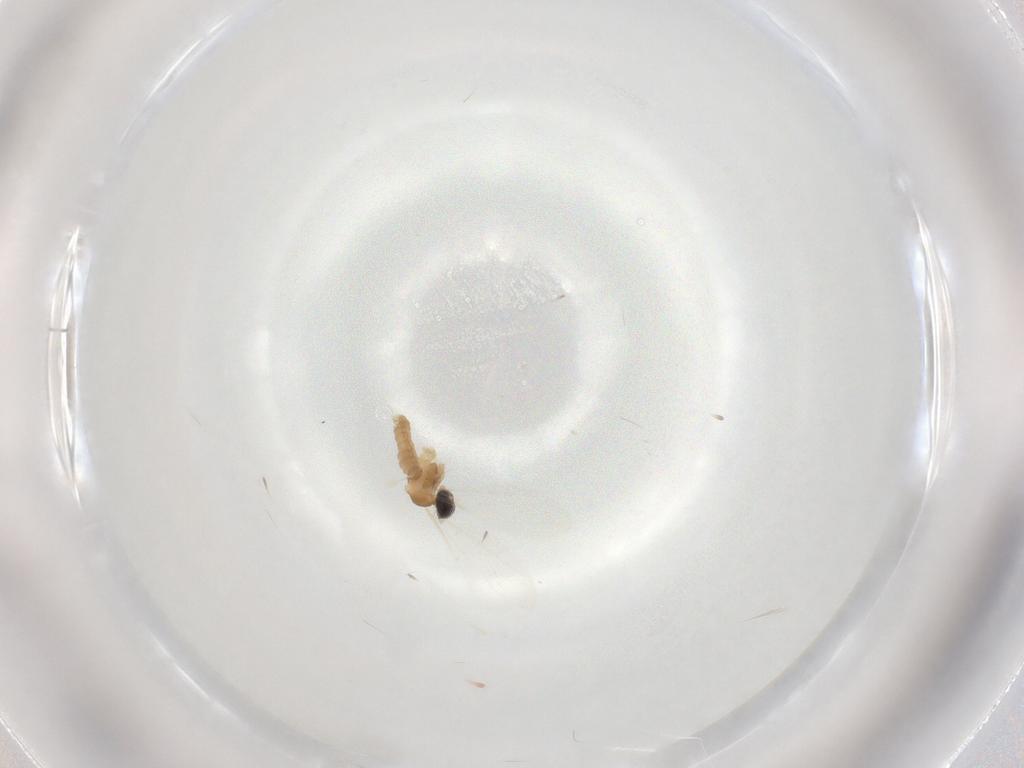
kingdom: Animalia
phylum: Arthropoda
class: Insecta
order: Diptera
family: Cecidomyiidae
